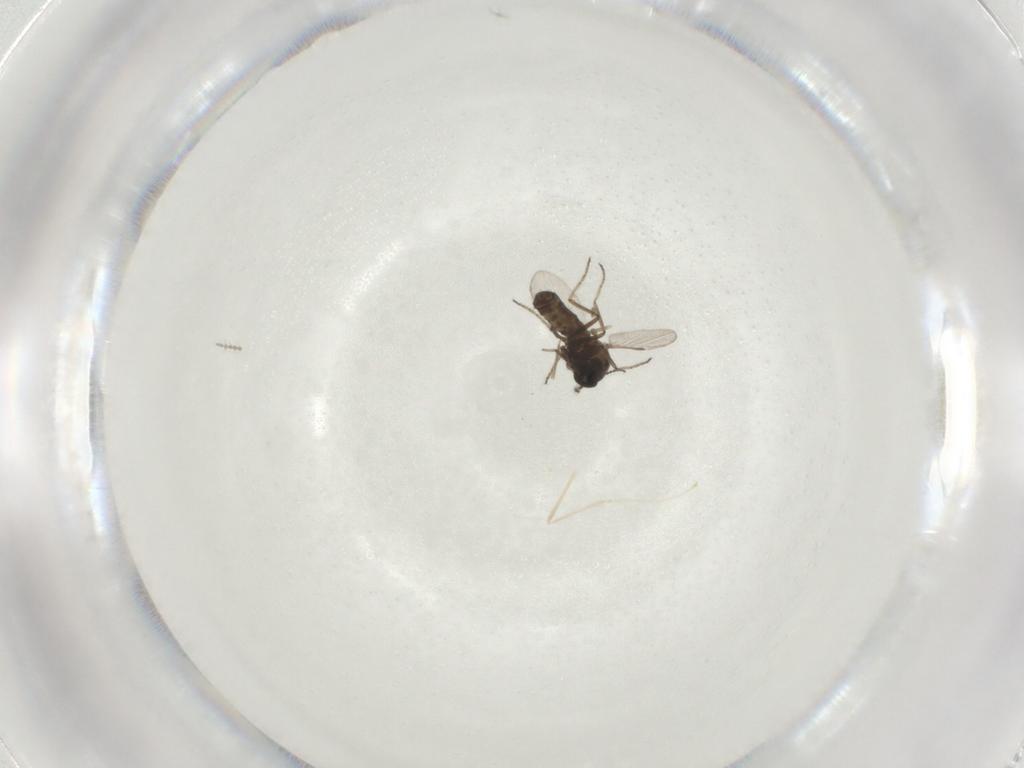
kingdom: Animalia
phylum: Arthropoda
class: Insecta
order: Diptera
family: Ceratopogonidae
